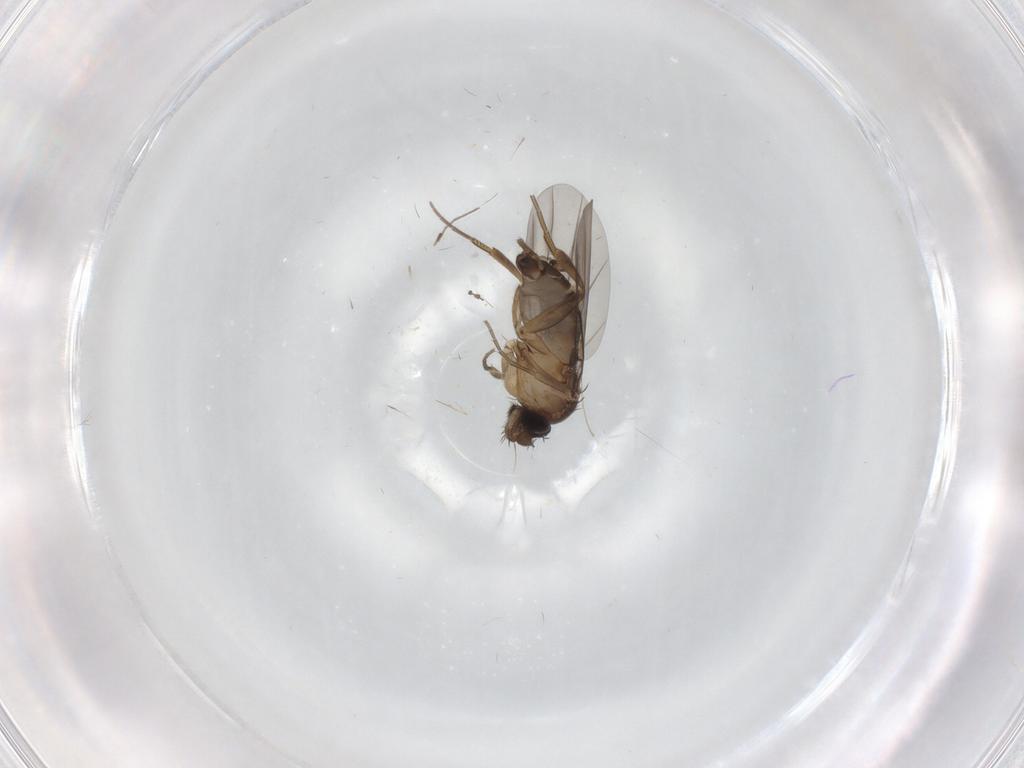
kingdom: Animalia
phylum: Arthropoda
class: Insecta
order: Diptera
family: Phoridae
